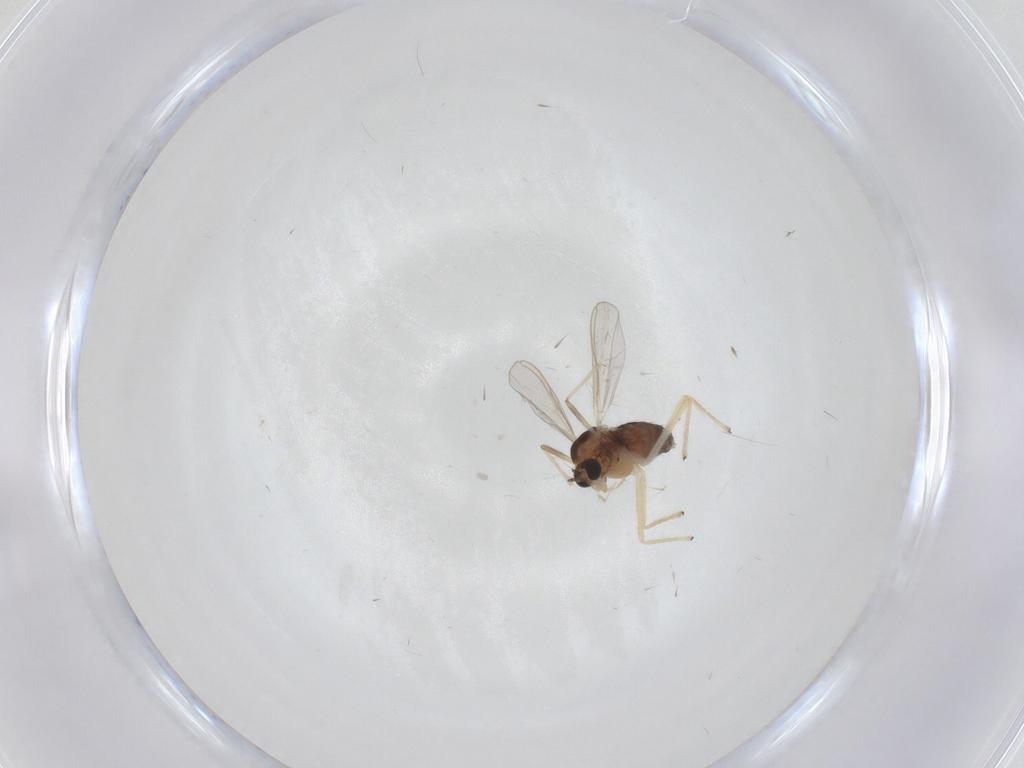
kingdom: Animalia
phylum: Arthropoda
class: Insecta
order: Diptera
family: Chironomidae
